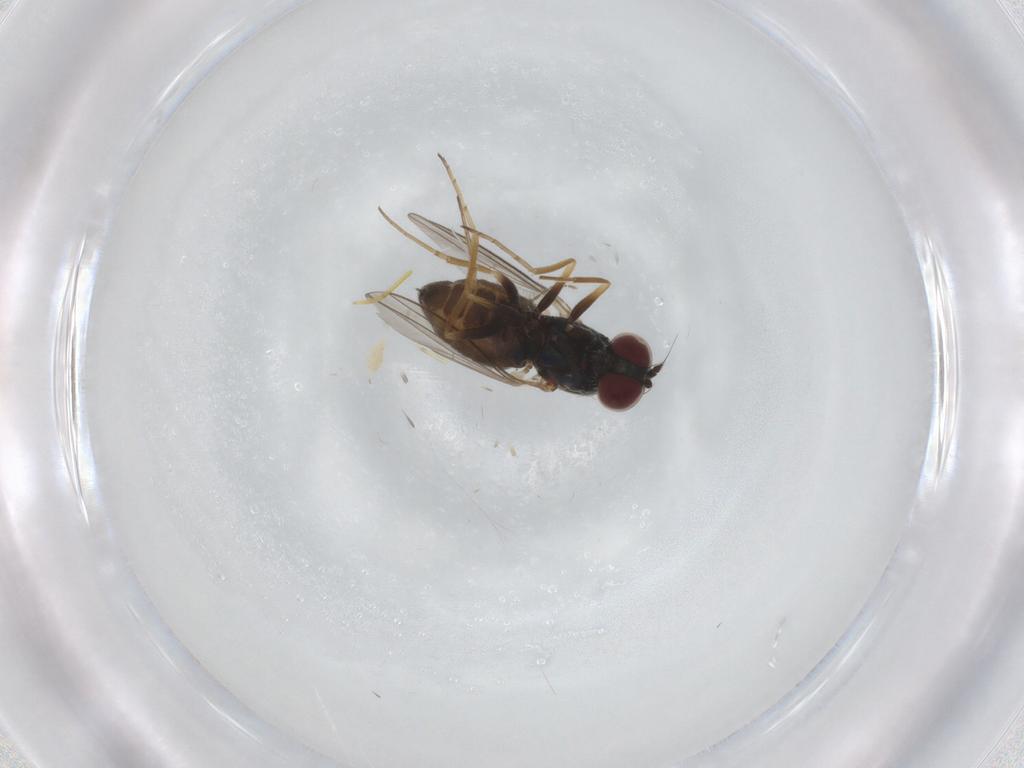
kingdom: Animalia
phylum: Arthropoda
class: Insecta
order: Diptera
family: Dolichopodidae
